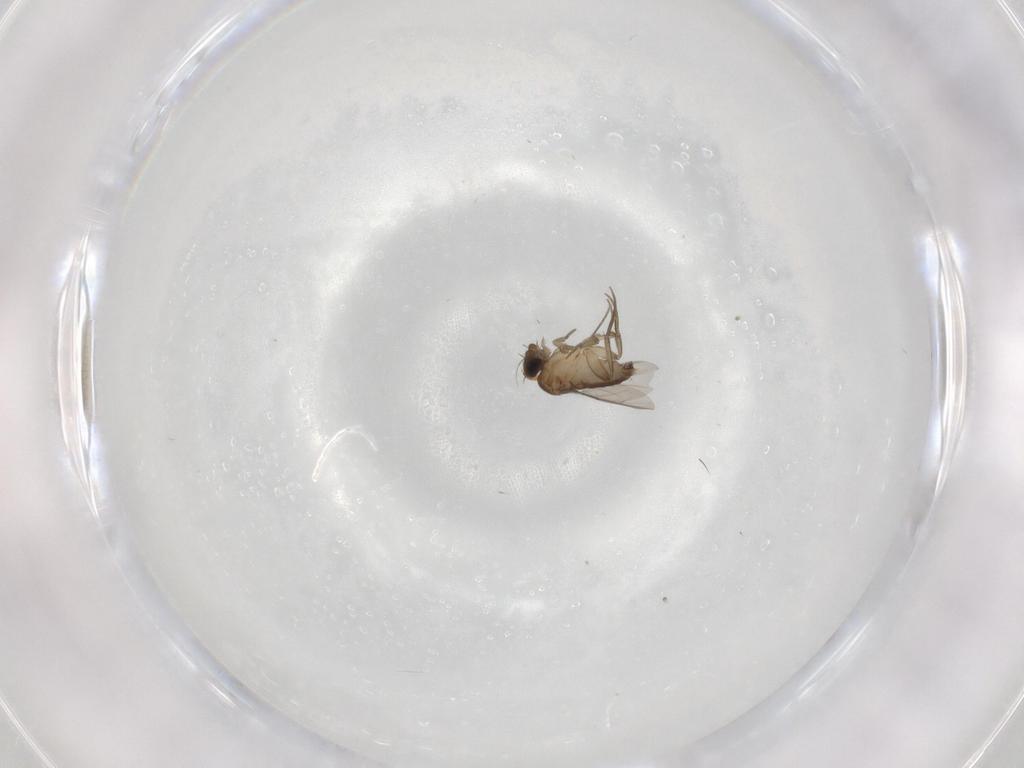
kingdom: Animalia
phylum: Arthropoda
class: Insecta
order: Diptera
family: Phoridae
